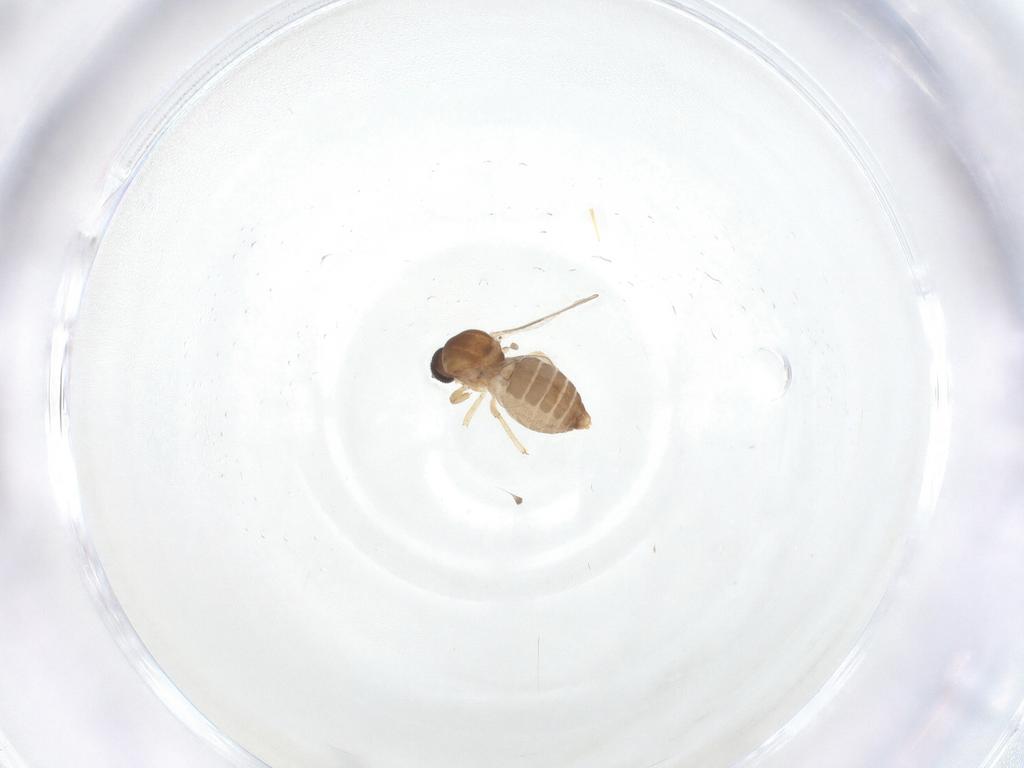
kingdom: Animalia
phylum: Arthropoda
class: Insecta
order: Diptera
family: Ceratopogonidae
